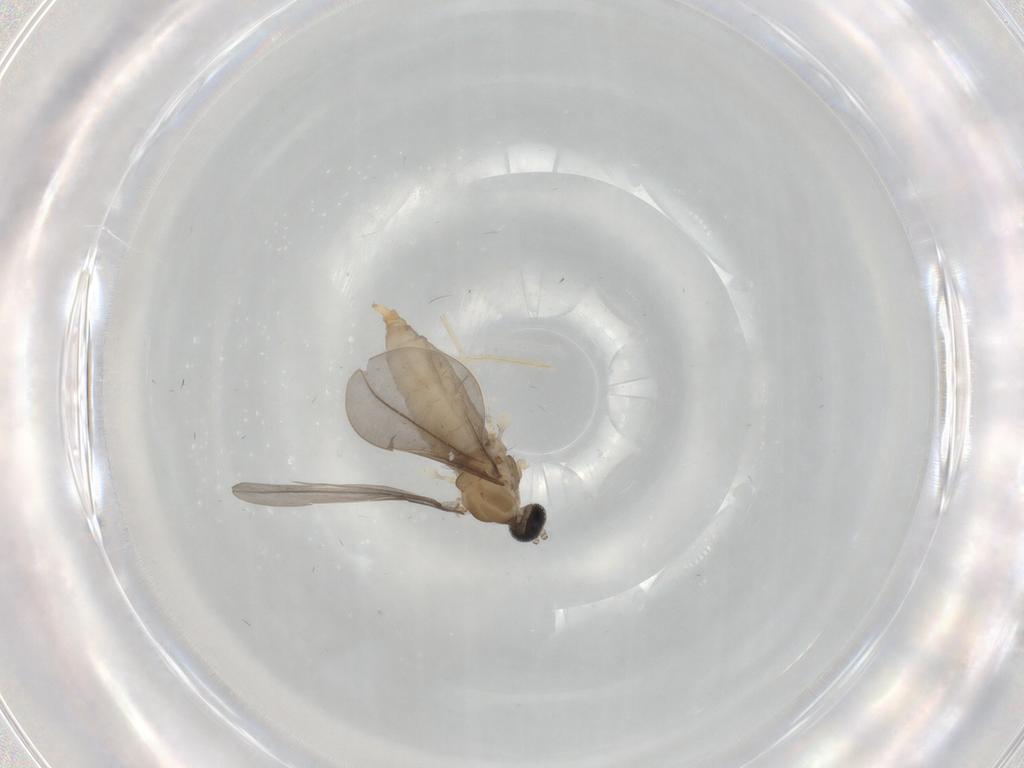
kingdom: Animalia
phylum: Arthropoda
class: Insecta
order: Diptera
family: Cecidomyiidae
